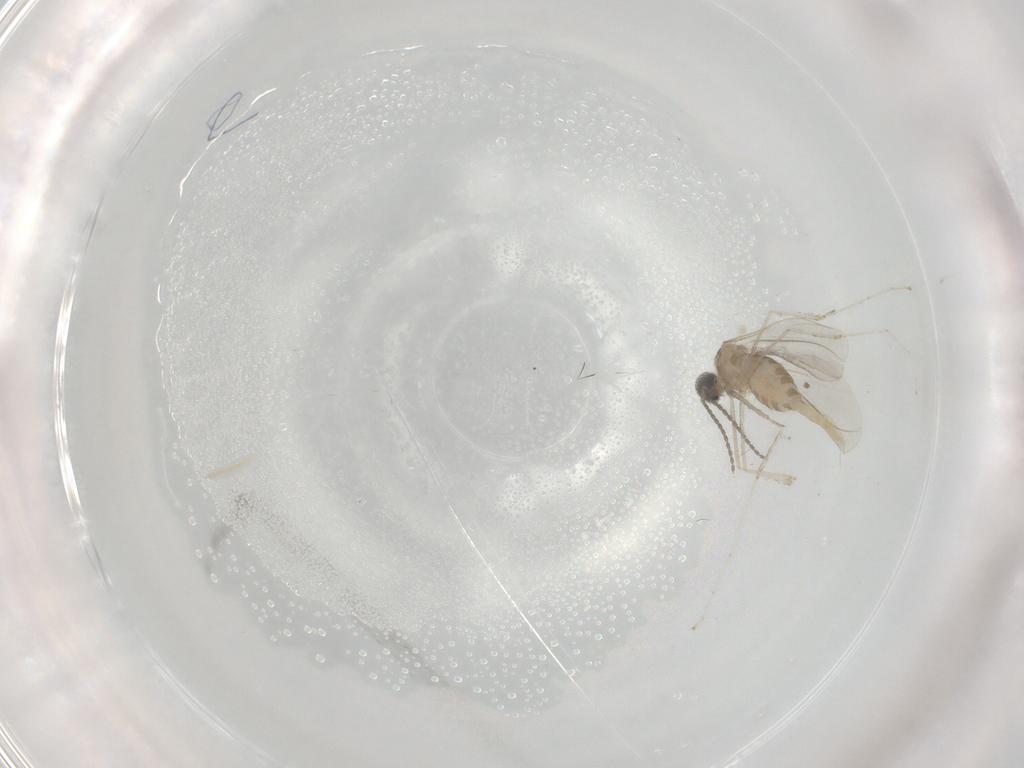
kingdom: Animalia
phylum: Arthropoda
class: Insecta
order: Diptera
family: Cecidomyiidae
